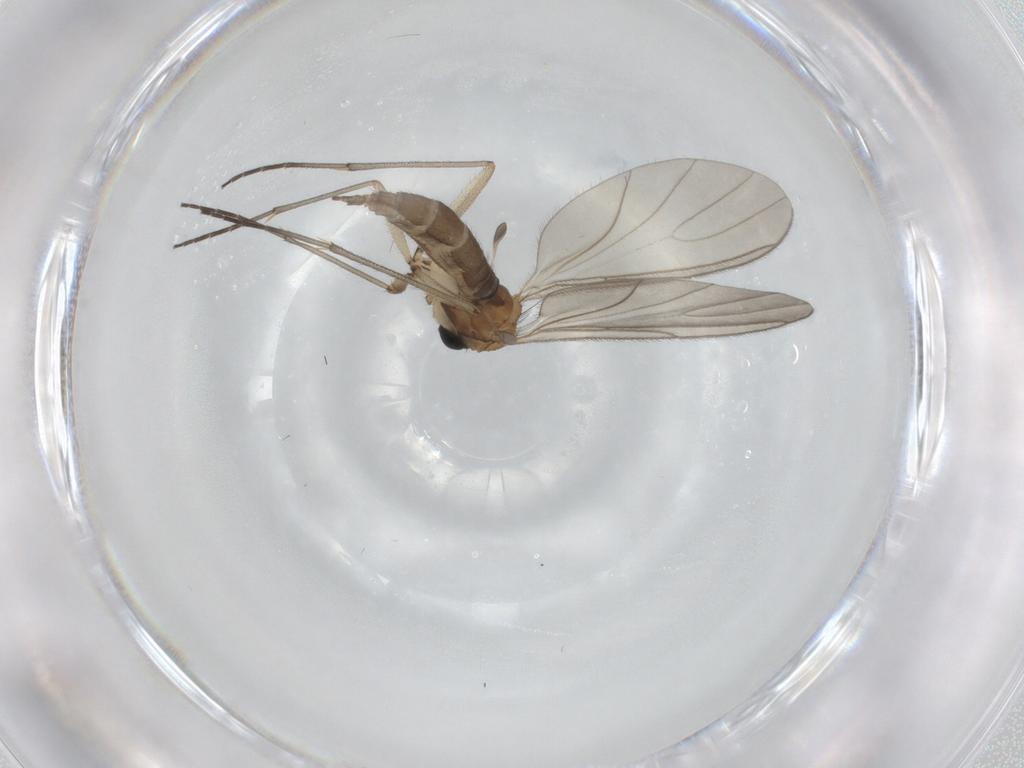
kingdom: Animalia
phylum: Arthropoda
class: Insecta
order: Diptera
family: Sciaridae
